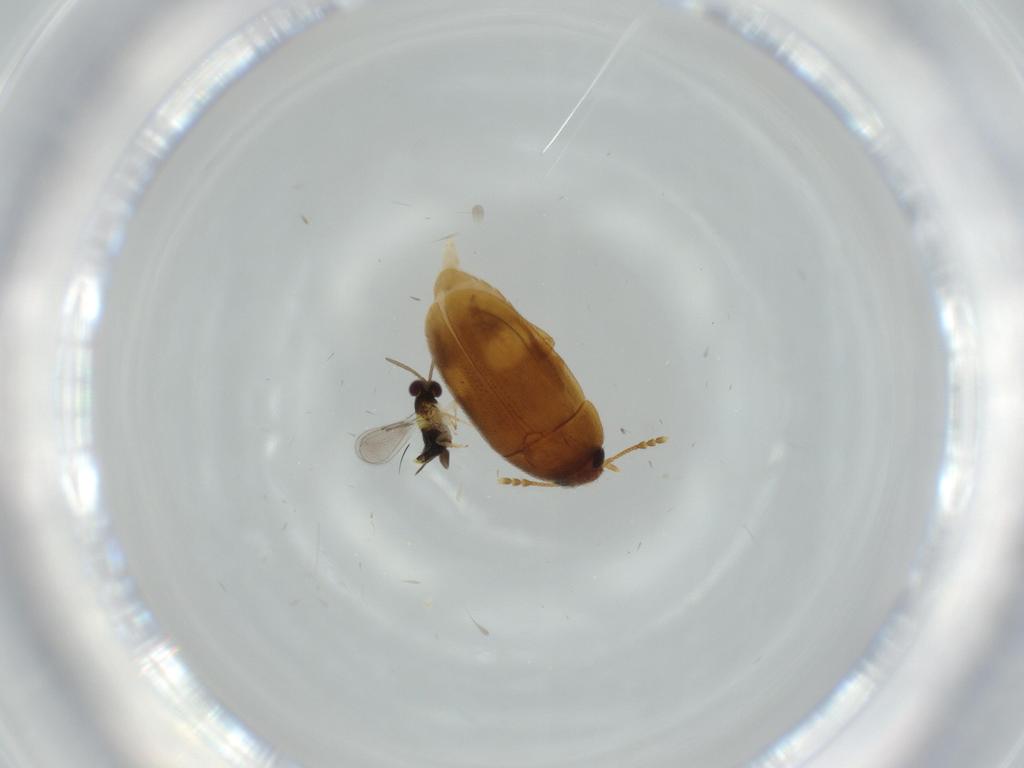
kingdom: Animalia
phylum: Arthropoda
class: Insecta
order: Coleoptera
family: Mycetophagidae
